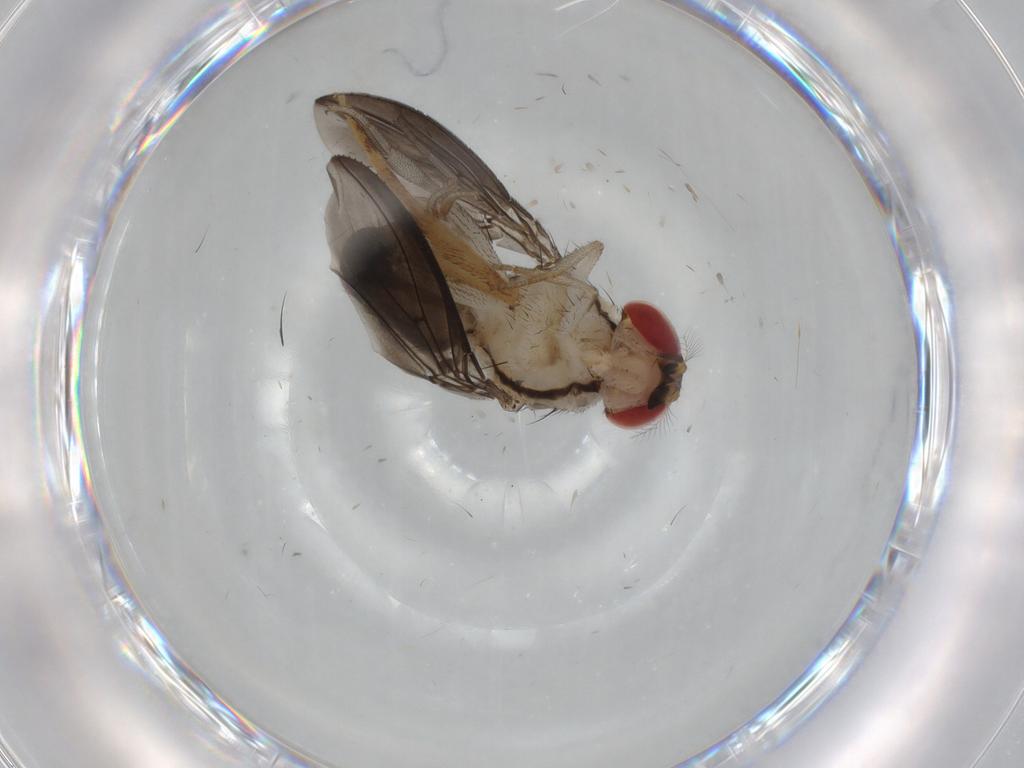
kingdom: Animalia
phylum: Arthropoda
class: Insecta
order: Diptera
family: Drosophilidae
